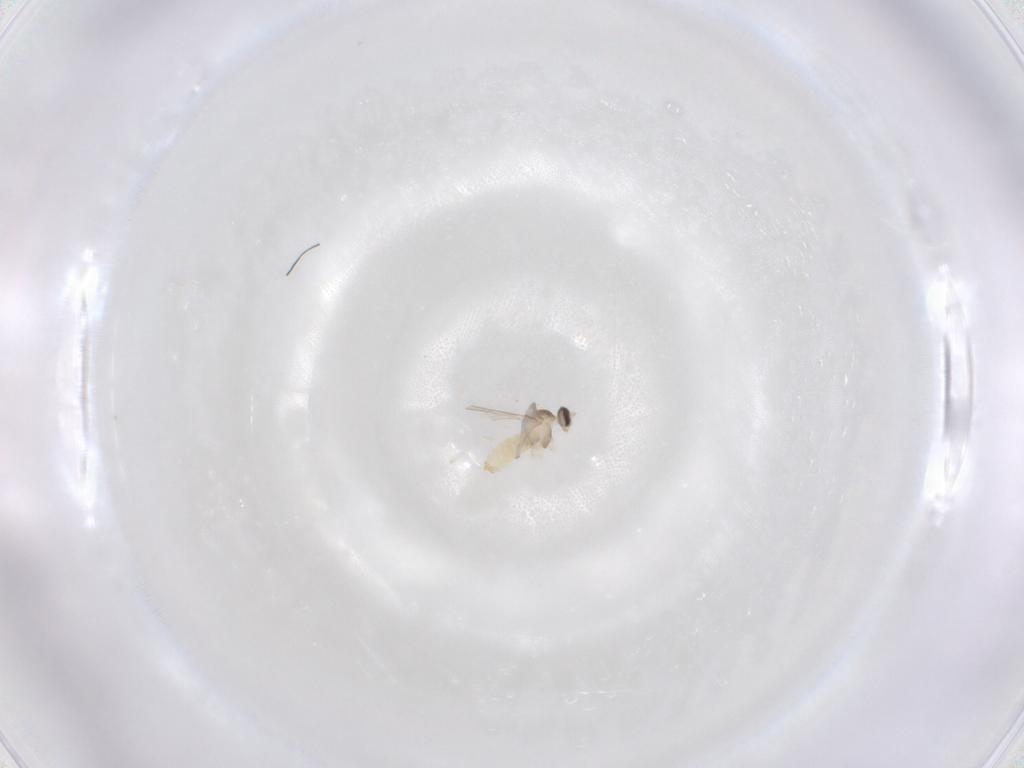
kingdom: Animalia
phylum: Arthropoda
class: Insecta
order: Diptera
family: Cecidomyiidae
